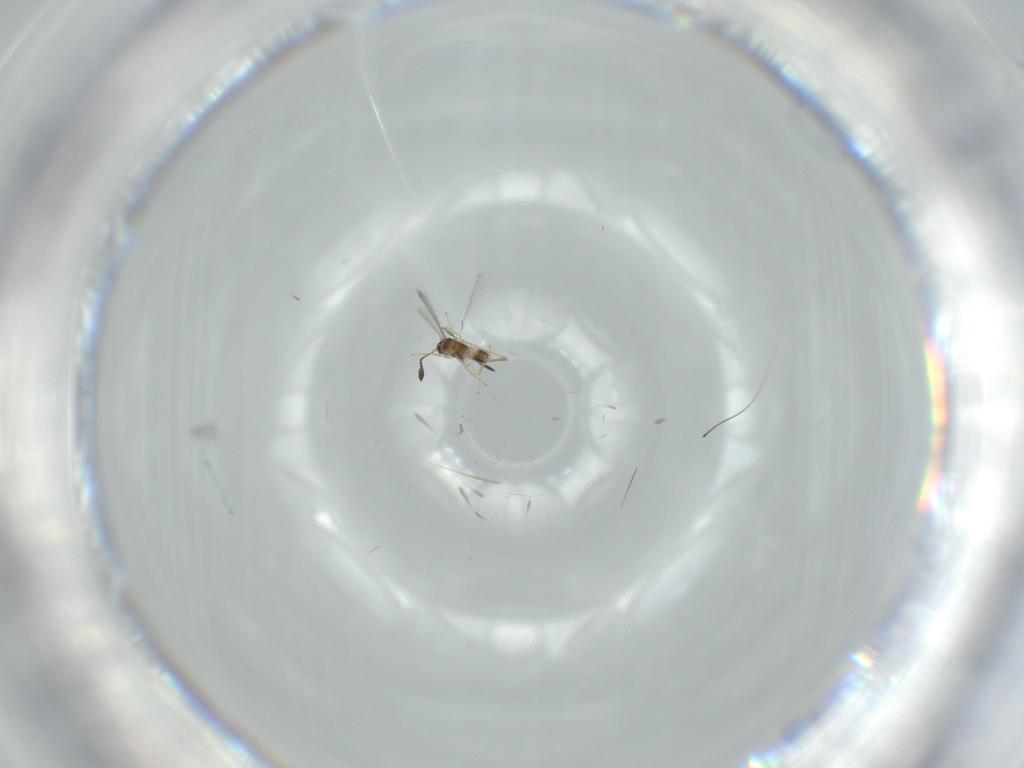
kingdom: Animalia
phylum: Arthropoda
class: Insecta
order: Hymenoptera
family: Mymaridae
